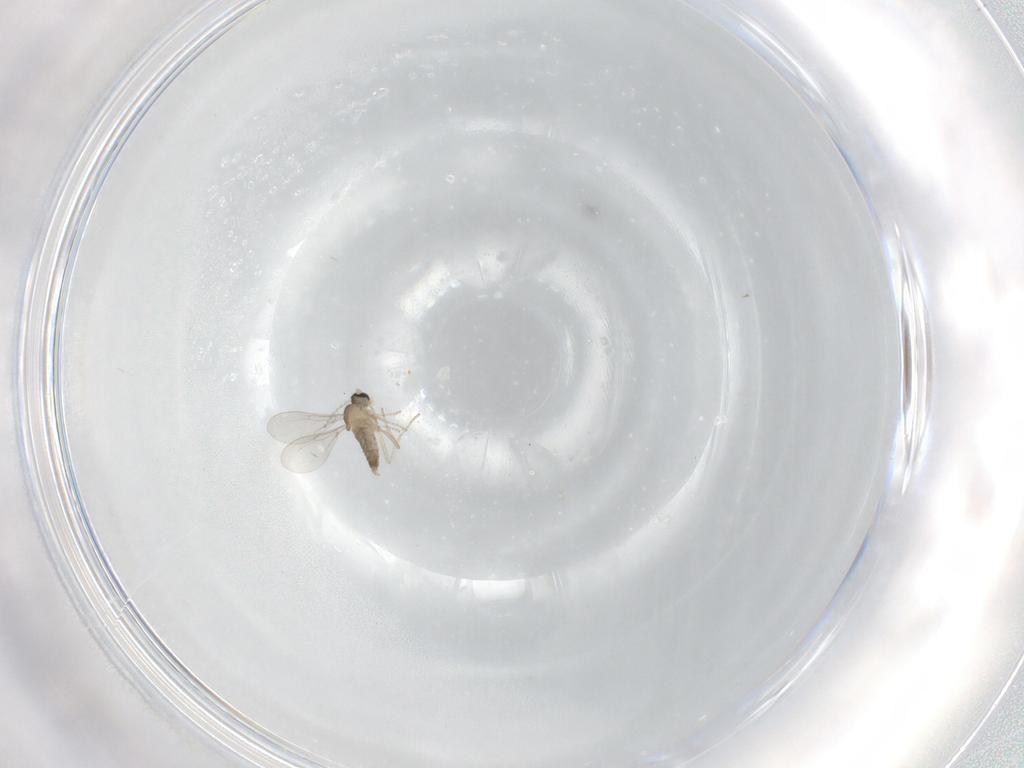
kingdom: Animalia
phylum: Arthropoda
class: Insecta
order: Diptera
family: Cecidomyiidae
